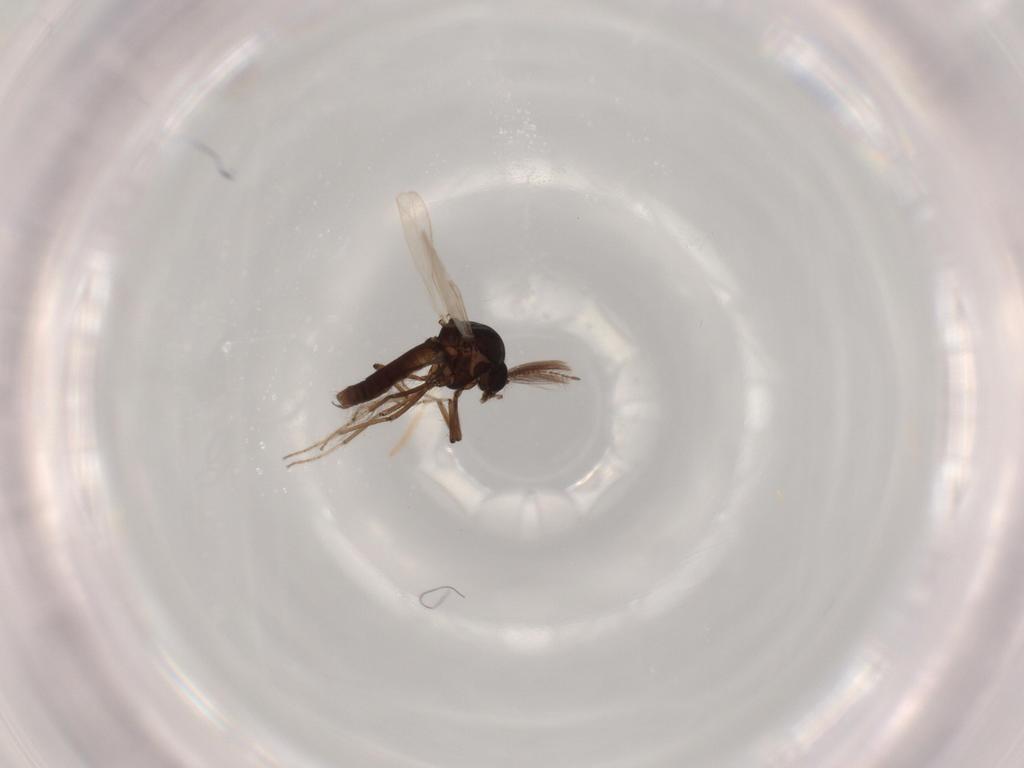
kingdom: Animalia
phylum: Arthropoda
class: Insecta
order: Diptera
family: Chironomidae
